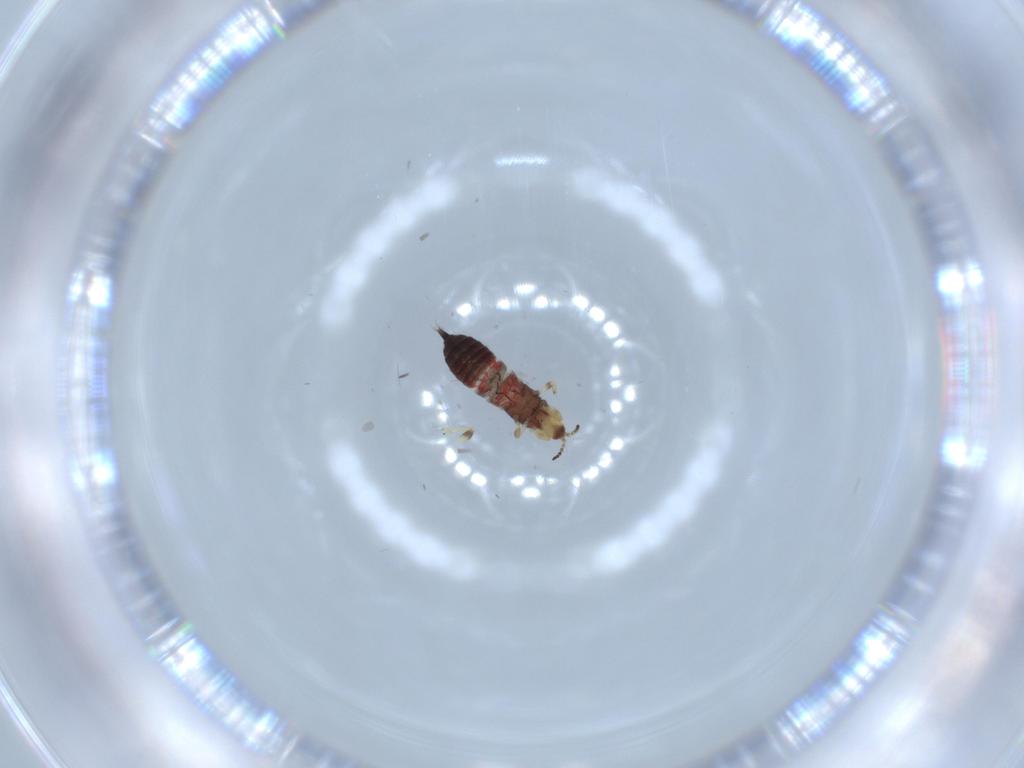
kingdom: Animalia
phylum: Arthropoda
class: Insecta
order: Thysanoptera
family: Phlaeothripidae
